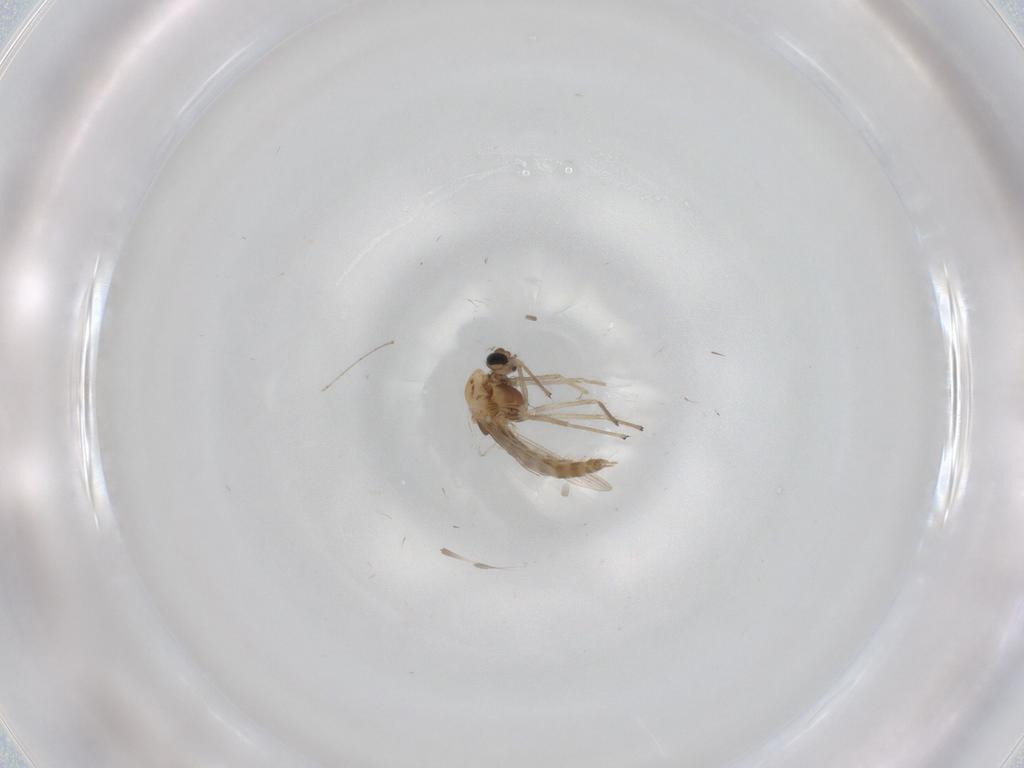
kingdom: Animalia
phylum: Arthropoda
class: Insecta
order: Diptera
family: Chironomidae
